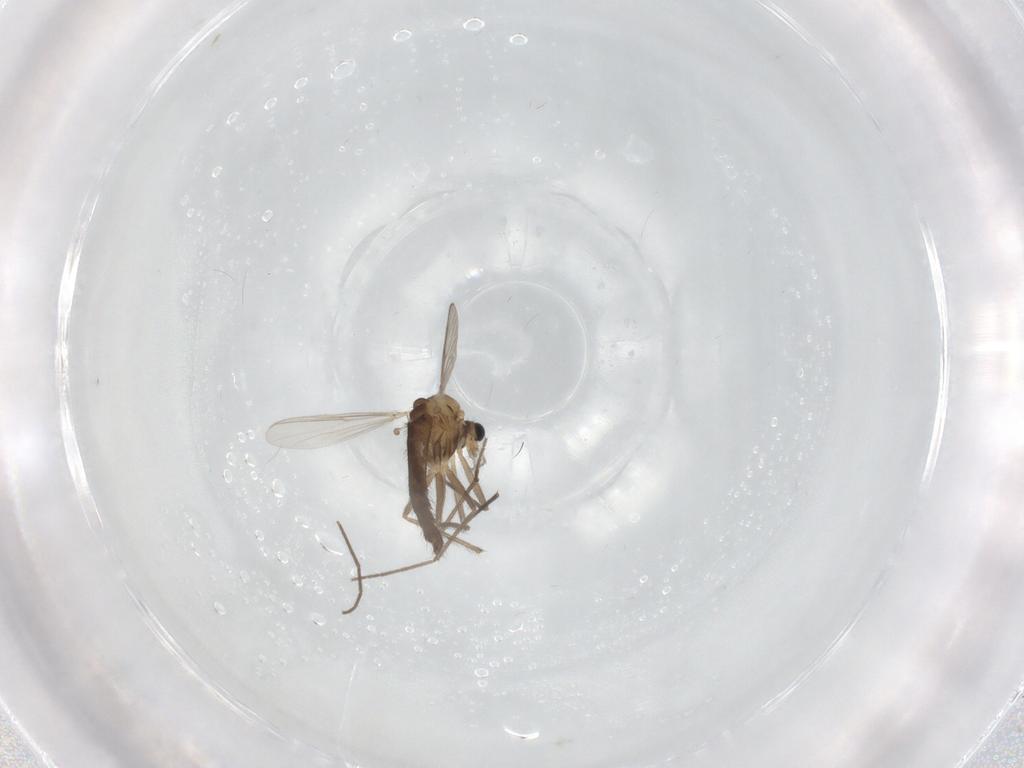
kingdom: Animalia
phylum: Arthropoda
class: Insecta
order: Diptera
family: Chironomidae
